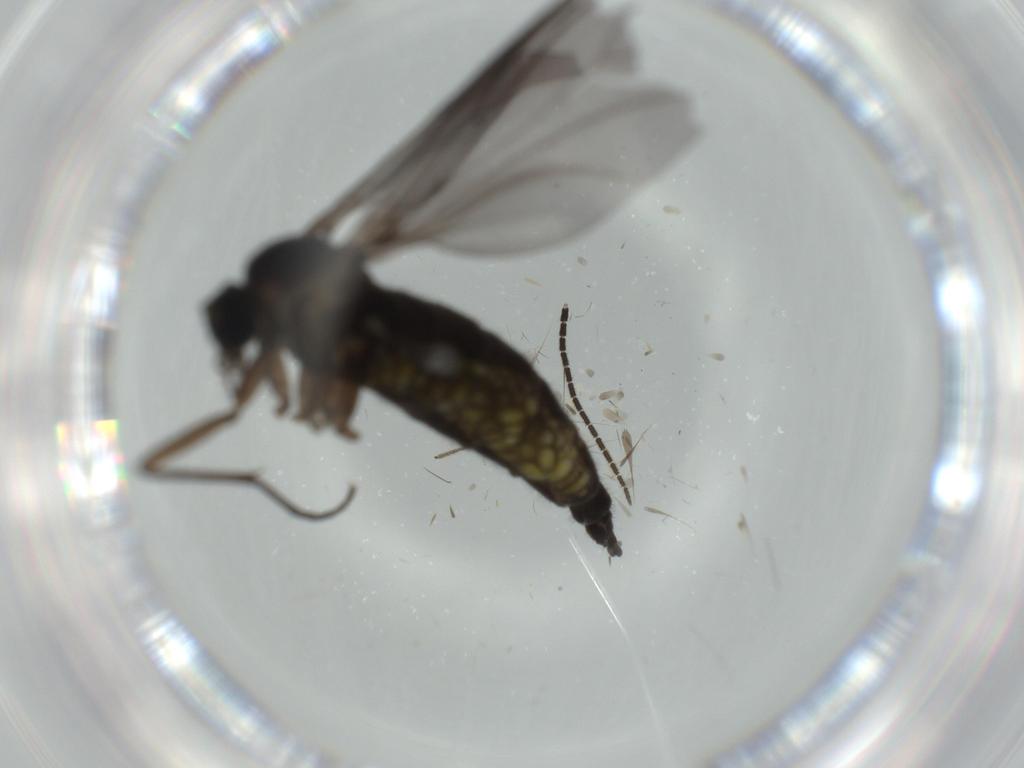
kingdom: Animalia
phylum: Arthropoda
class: Insecta
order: Diptera
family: Sciaridae
